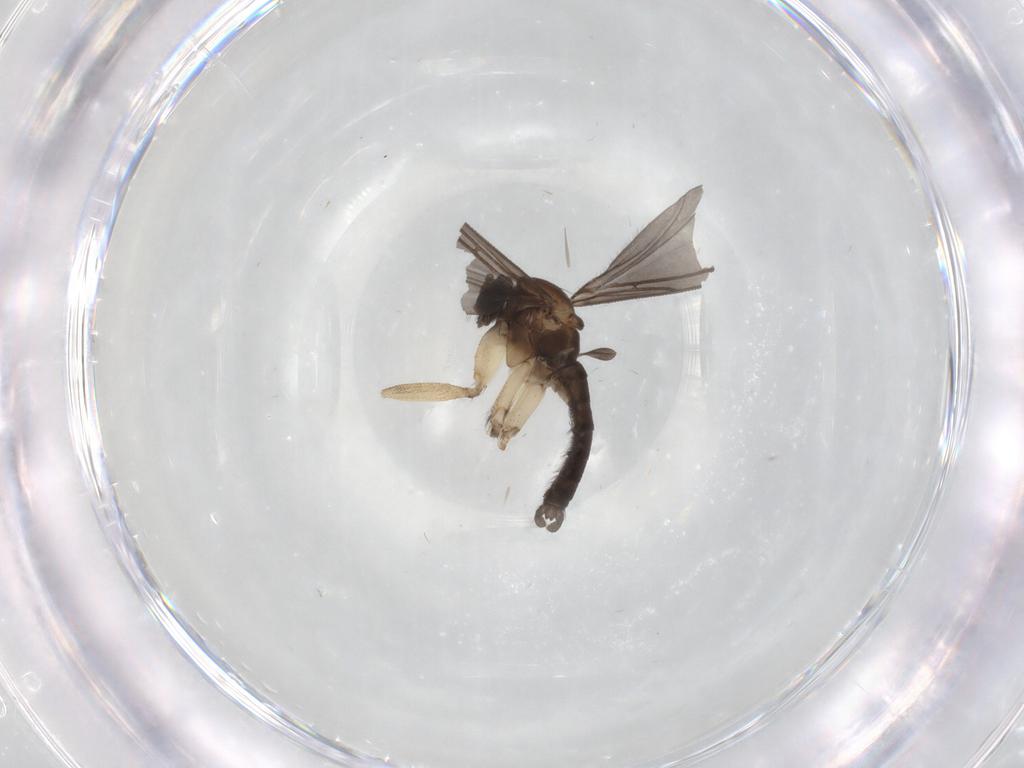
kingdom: Animalia
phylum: Arthropoda
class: Insecta
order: Diptera
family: Sciaridae
